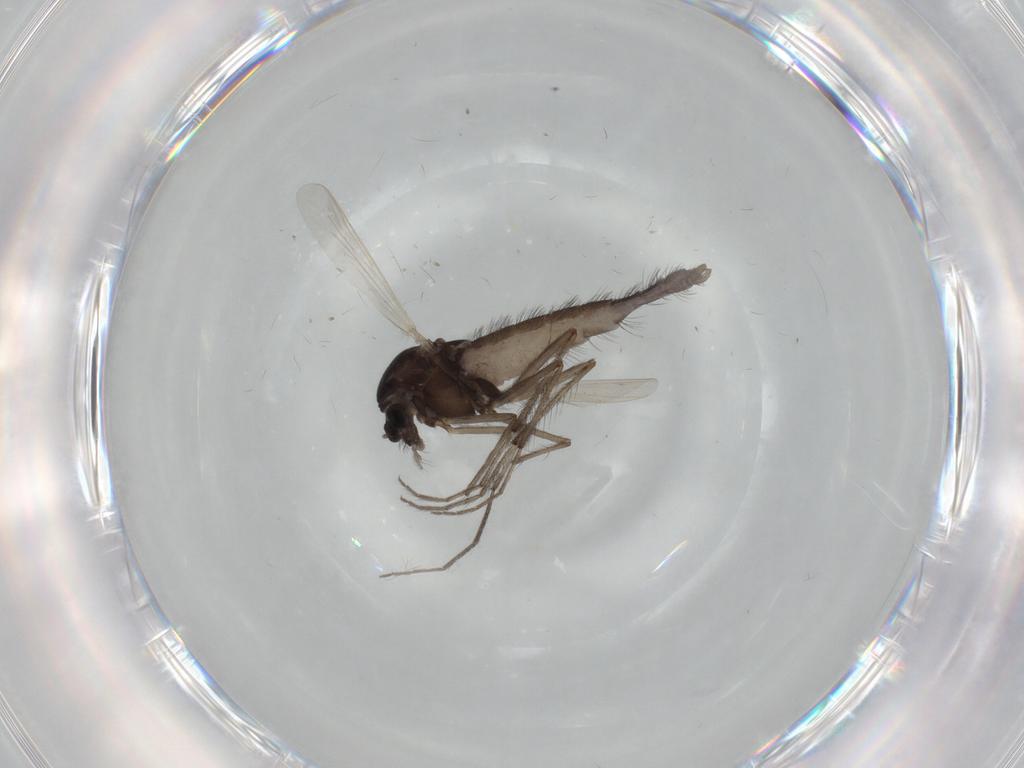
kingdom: Animalia
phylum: Arthropoda
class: Insecta
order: Diptera
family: Chironomidae
